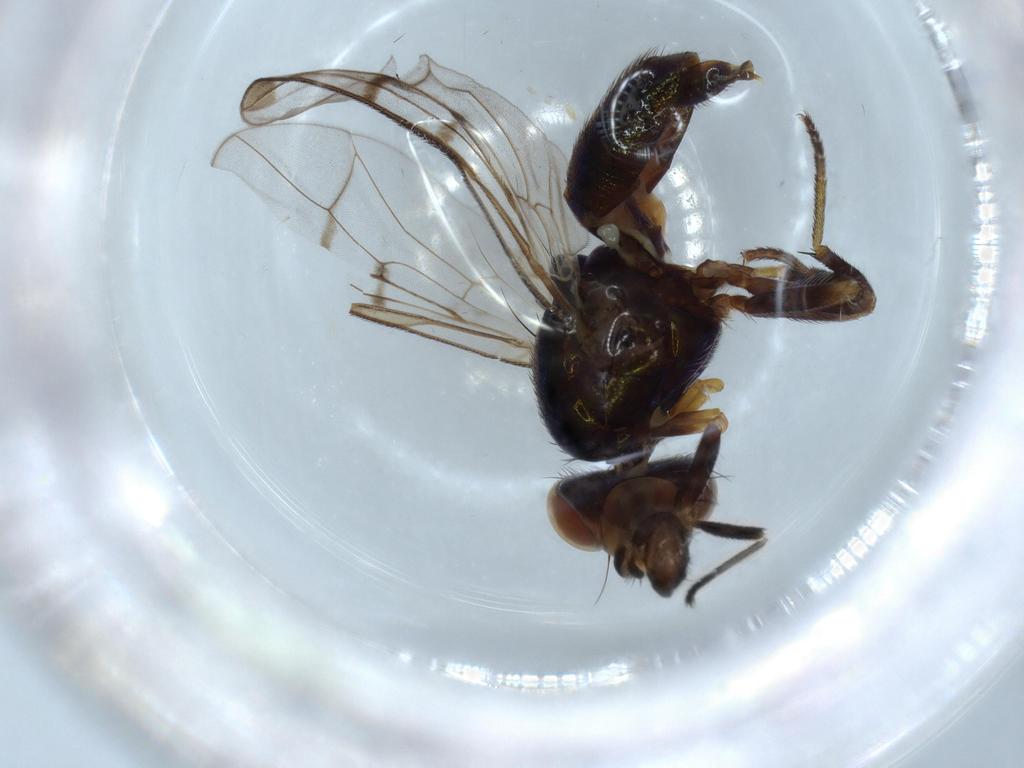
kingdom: Animalia
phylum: Arthropoda
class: Insecta
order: Diptera
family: Platystomatidae
